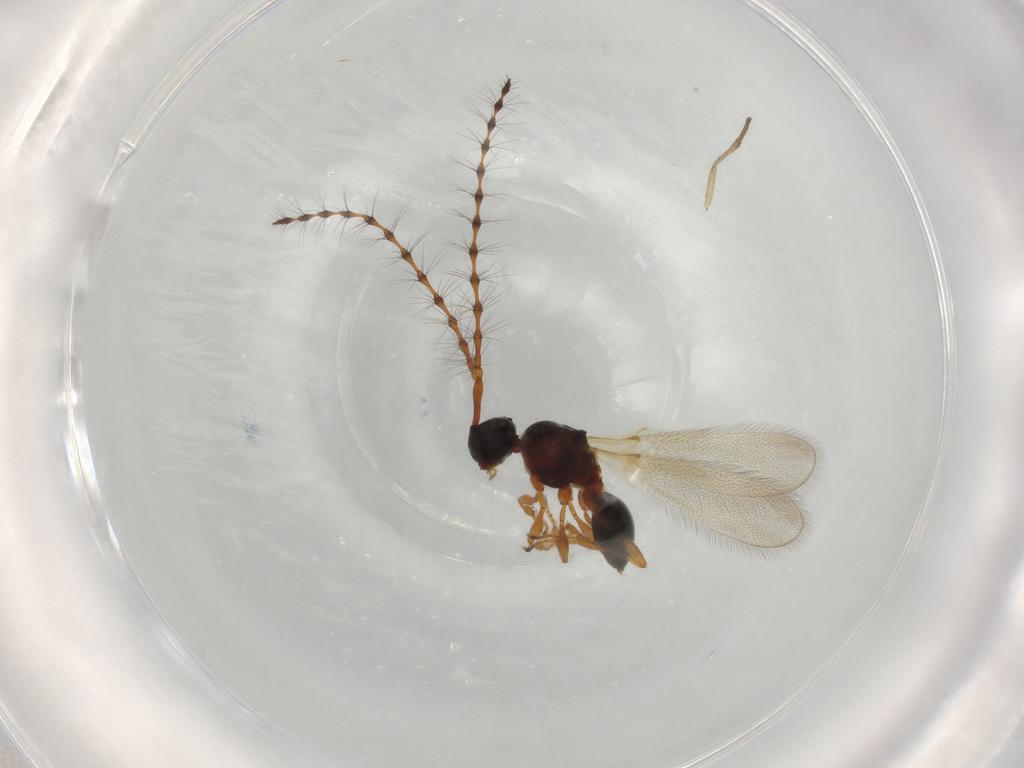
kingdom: Animalia
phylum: Arthropoda
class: Insecta
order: Hymenoptera
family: Diapriidae
